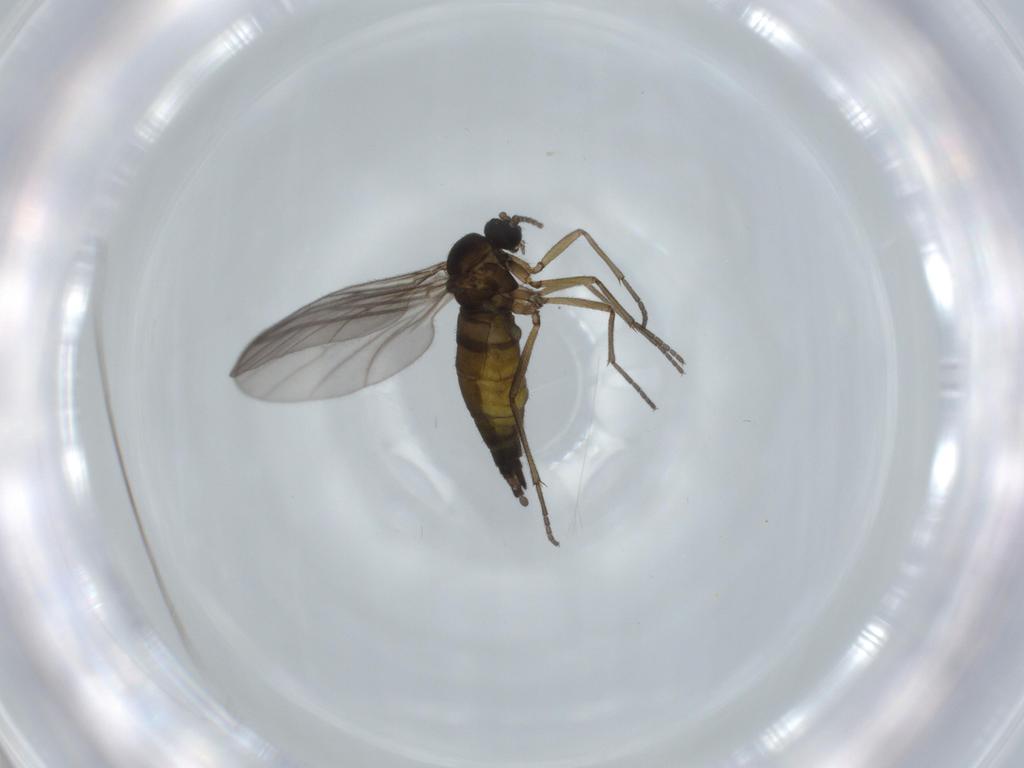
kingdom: Animalia
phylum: Arthropoda
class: Insecta
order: Diptera
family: Sciaridae
